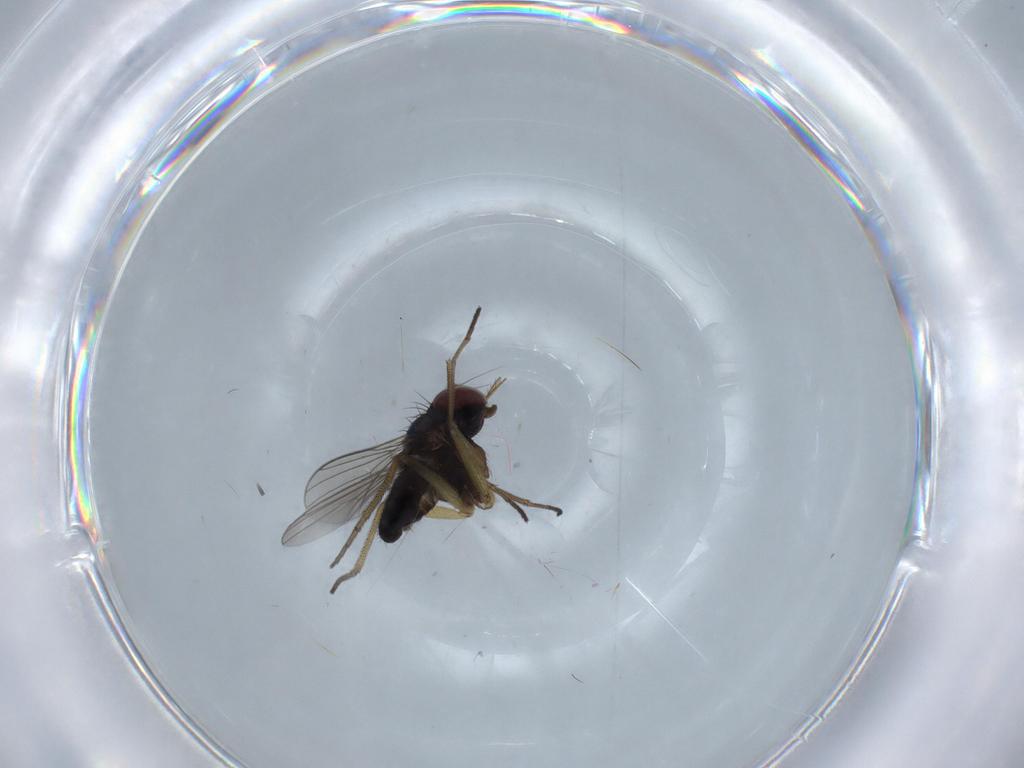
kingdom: Animalia
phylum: Arthropoda
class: Insecta
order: Diptera
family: Dolichopodidae
